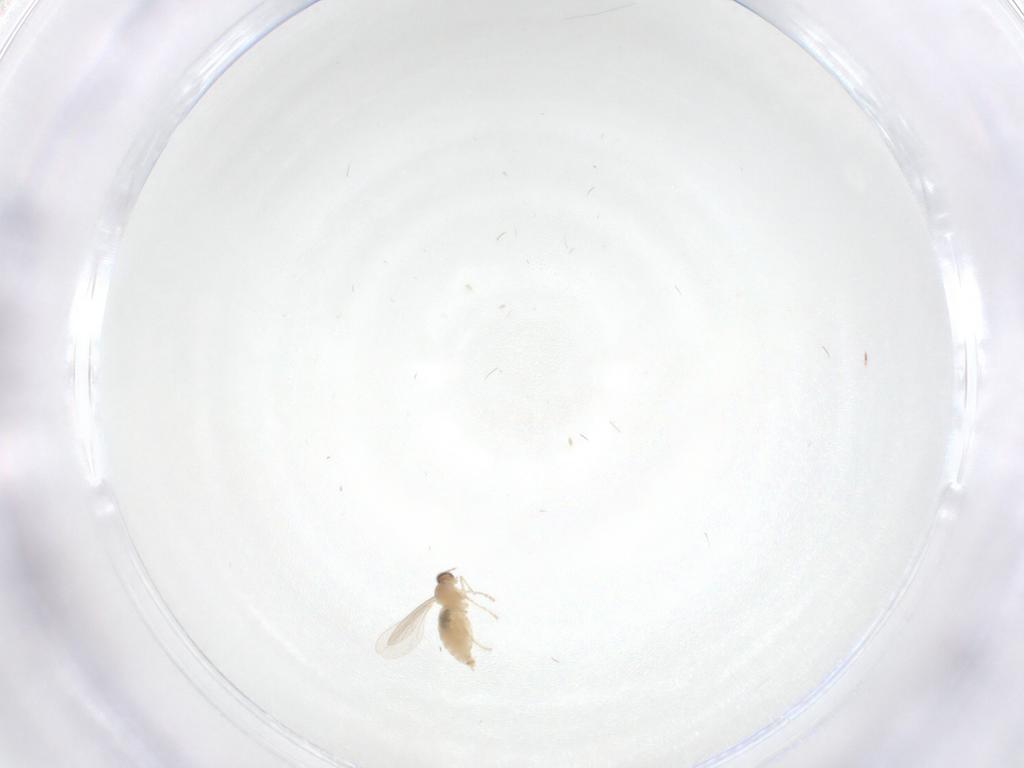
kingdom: Animalia
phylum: Arthropoda
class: Insecta
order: Diptera
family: Cecidomyiidae
